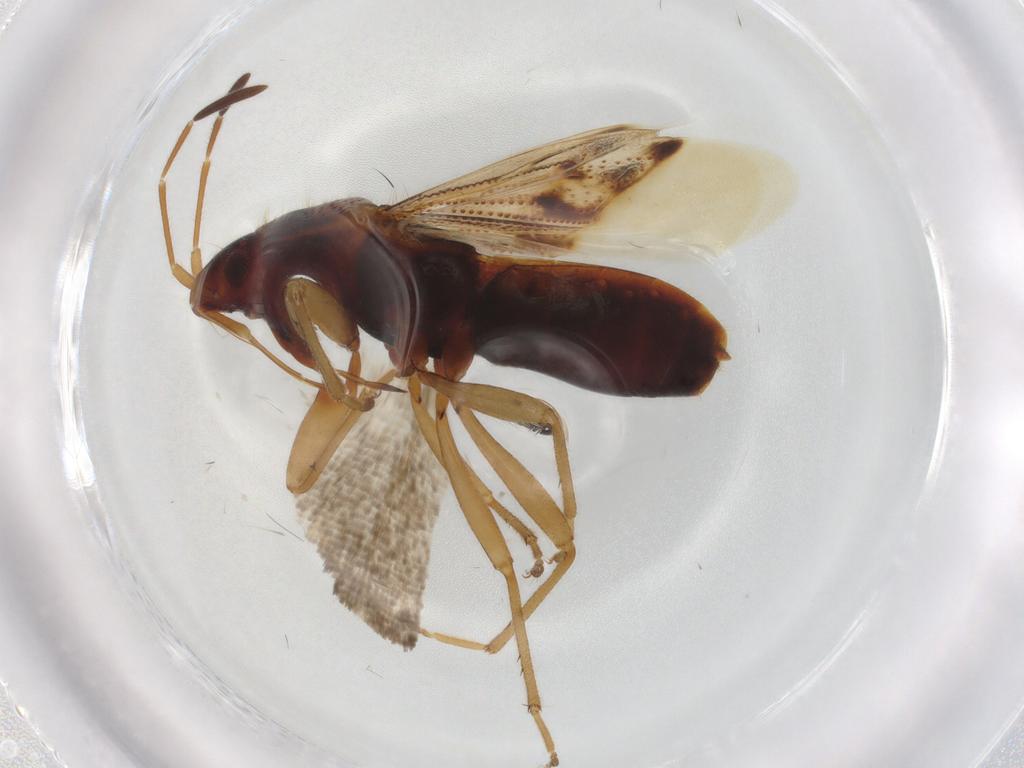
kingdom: Animalia
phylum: Arthropoda
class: Insecta
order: Hemiptera
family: Rhyparochromidae
